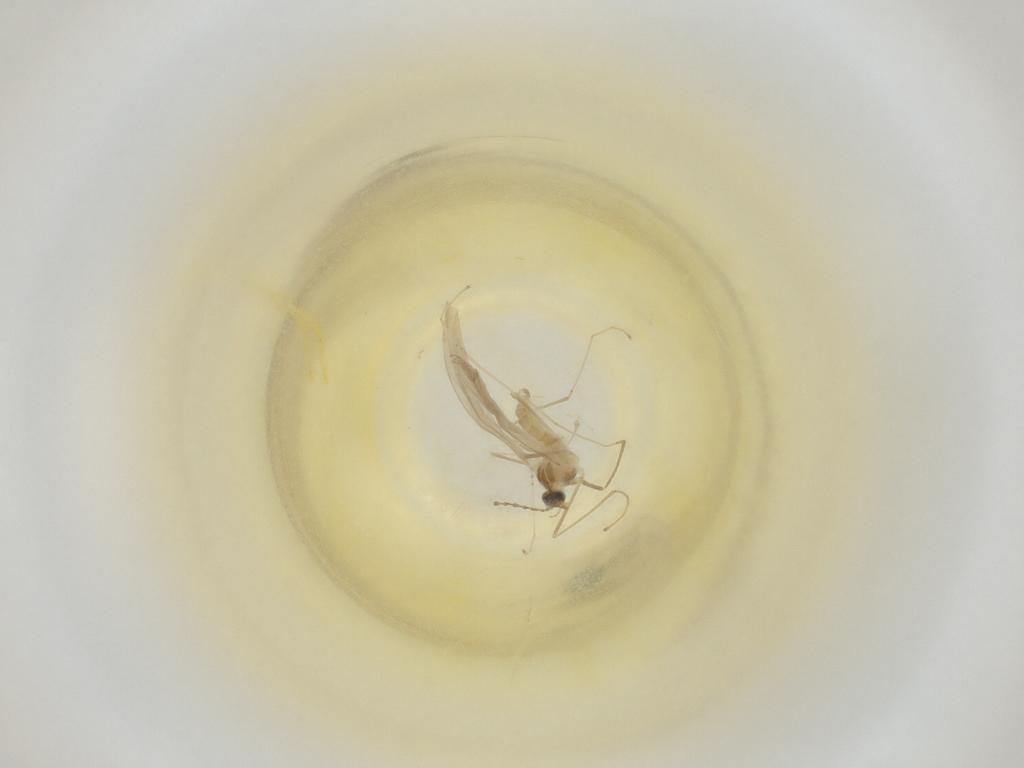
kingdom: Animalia
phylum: Arthropoda
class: Insecta
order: Diptera
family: Cecidomyiidae
